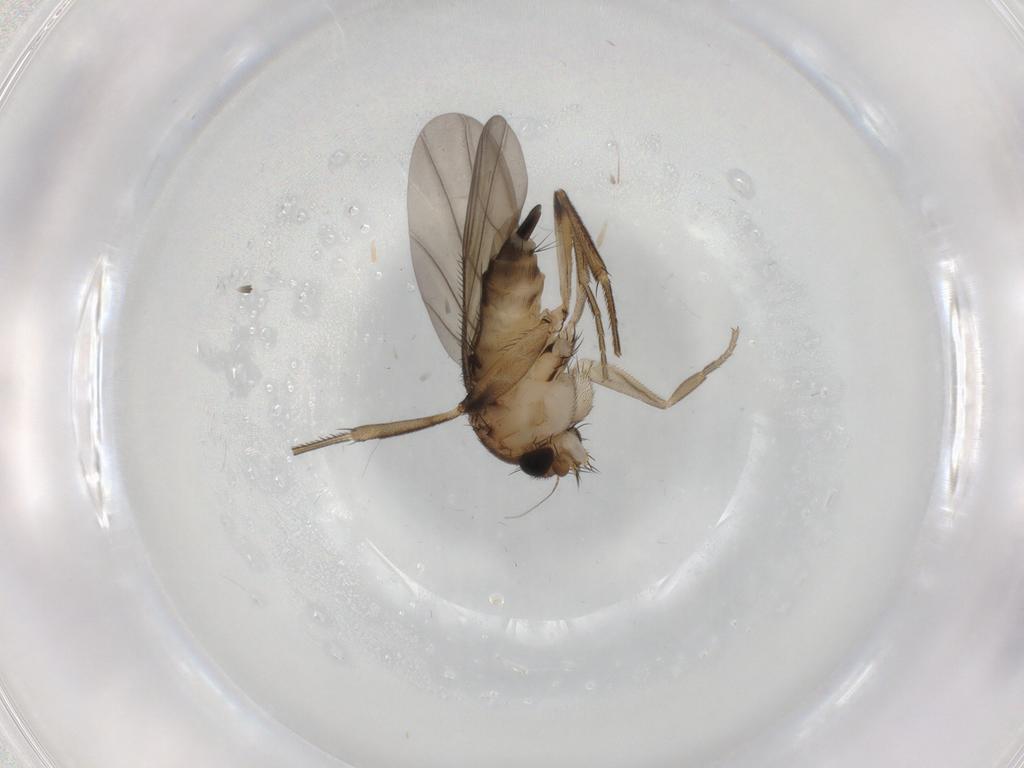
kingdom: Animalia
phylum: Arthropoda
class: Insecta
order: Diptera
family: Phoridae
